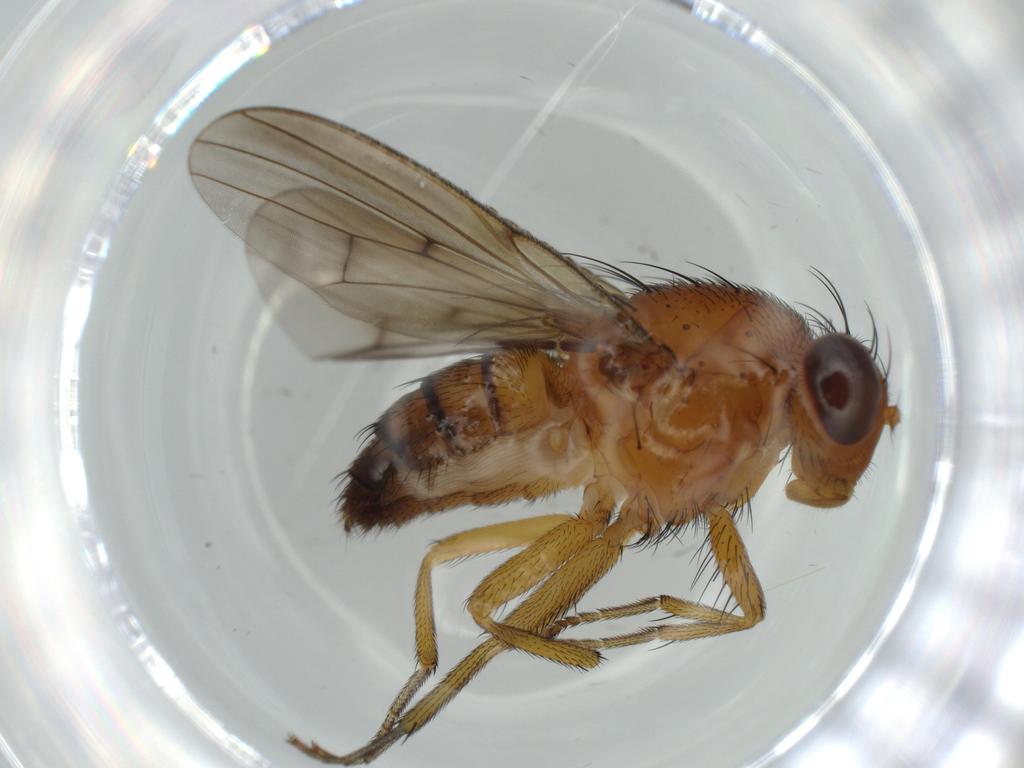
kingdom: Animalia
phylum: Arthropoda
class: Insecta
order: Diptera
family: Sciaridae
